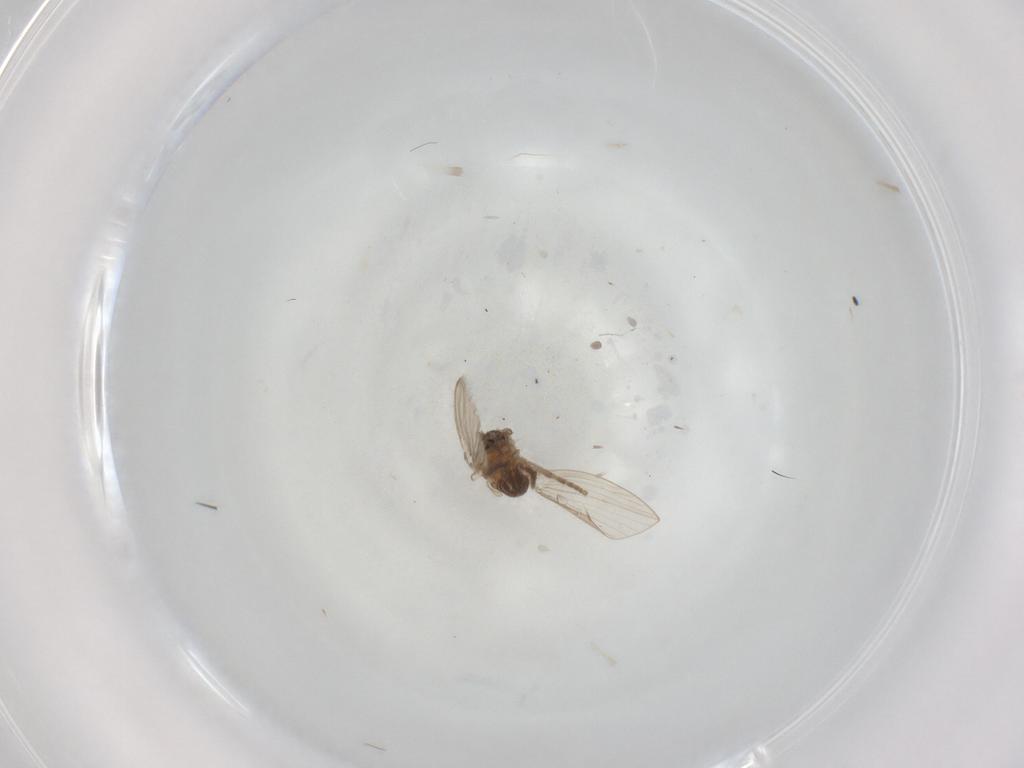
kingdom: Animalia
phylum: Arthropoda
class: Insecta
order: Diptera
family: Psychodidae
